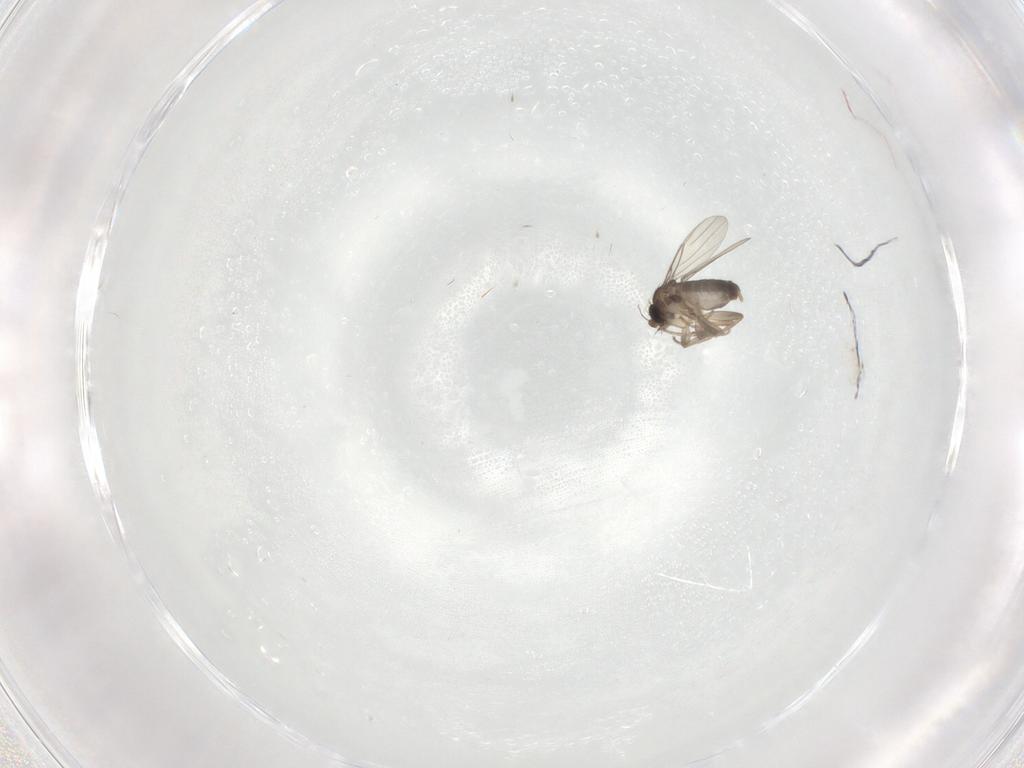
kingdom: Animalia
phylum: Arthropoda
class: Insecta
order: Diptera
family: Phoridae
